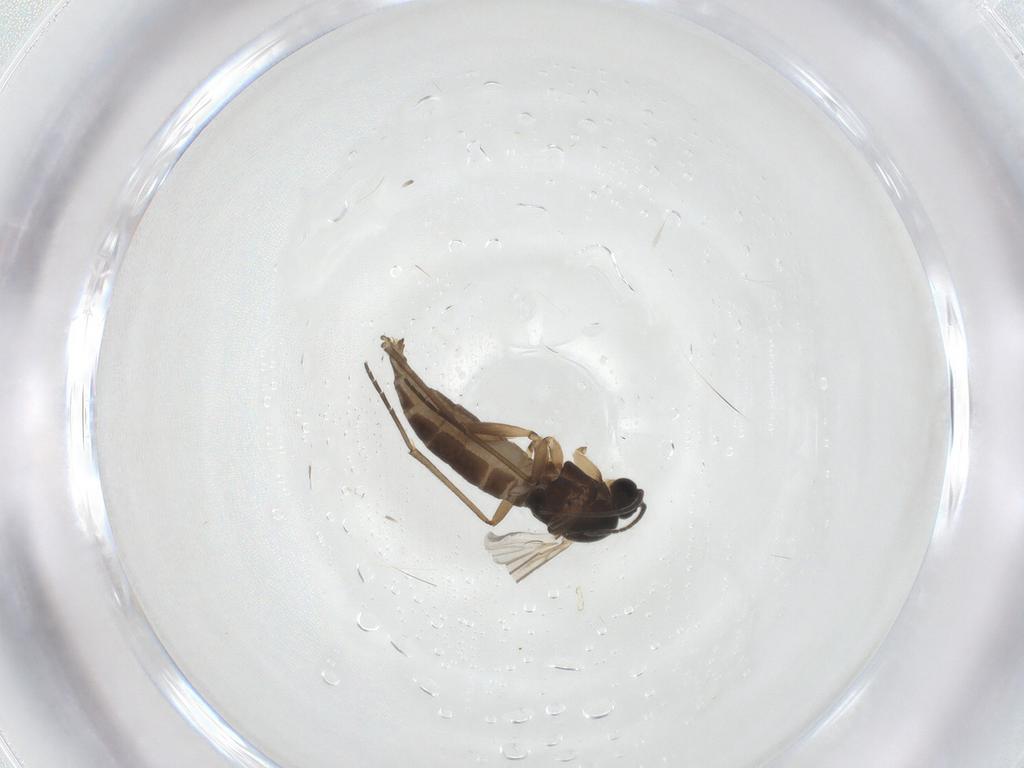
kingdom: Animalia
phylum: Arthropoda
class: Insecta
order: Diptera
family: Sciaridae
